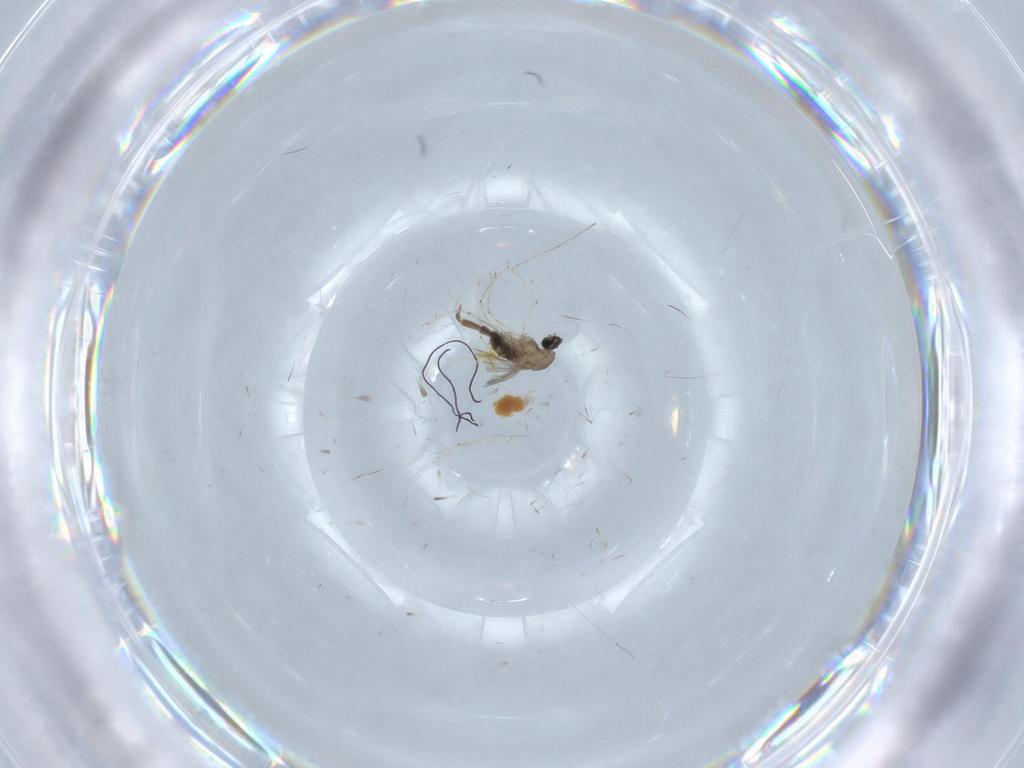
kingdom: Animalia
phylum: Arthropoda
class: Insecta
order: Diptera
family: Cecidomyiidae
